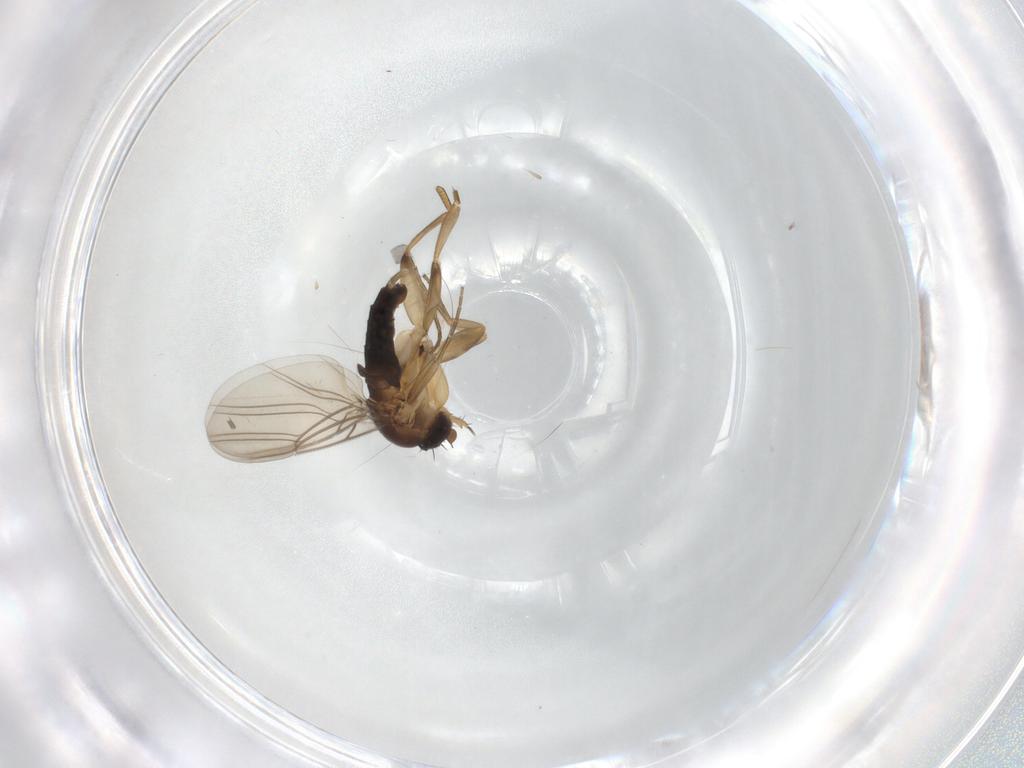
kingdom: Animalia
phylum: Arthropoda
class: Insecta
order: Diptera
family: Phoridae
